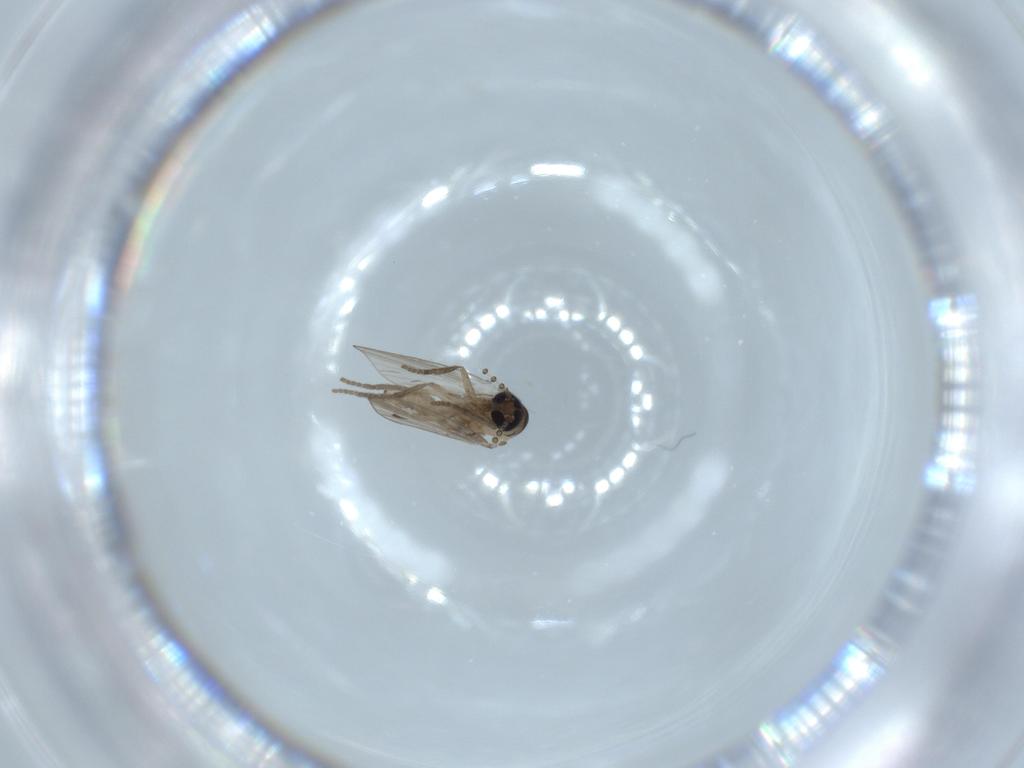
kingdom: Animalia
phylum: Arthropoda
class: Insecta
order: Diptera
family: Sciaridae
